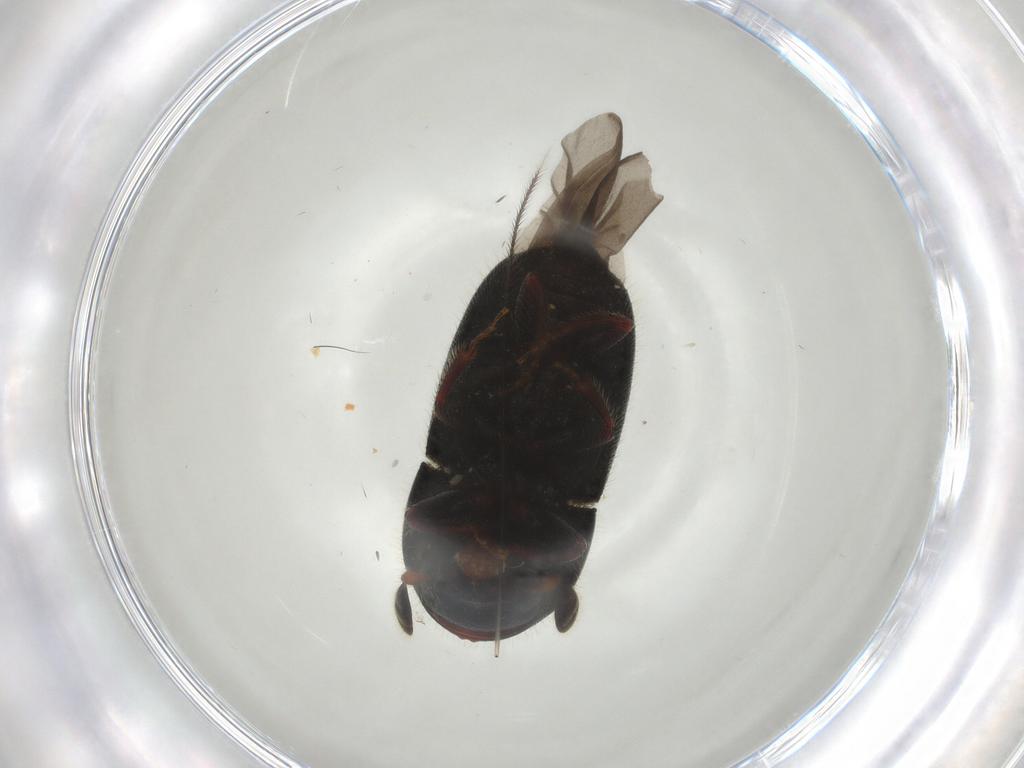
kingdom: Animalia
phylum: Arthropoda
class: Insecta
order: Coleoptera
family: Curculionidae
